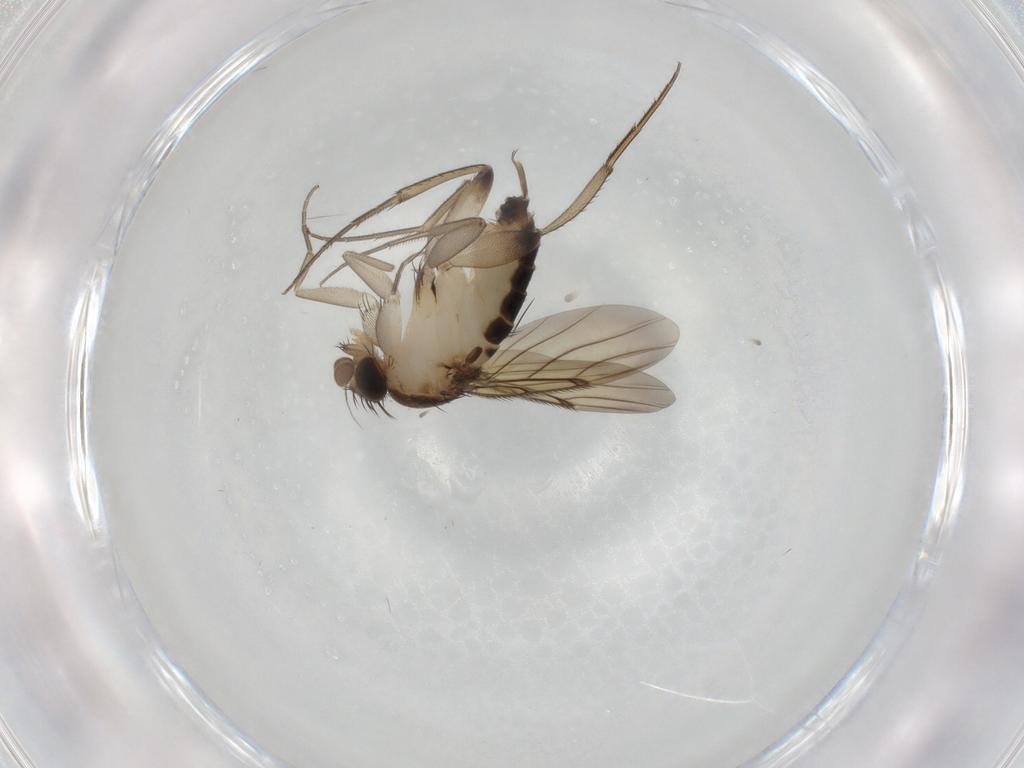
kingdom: Animalia
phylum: Arthropoda
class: Insecta
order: Diptera
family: Phoridae
